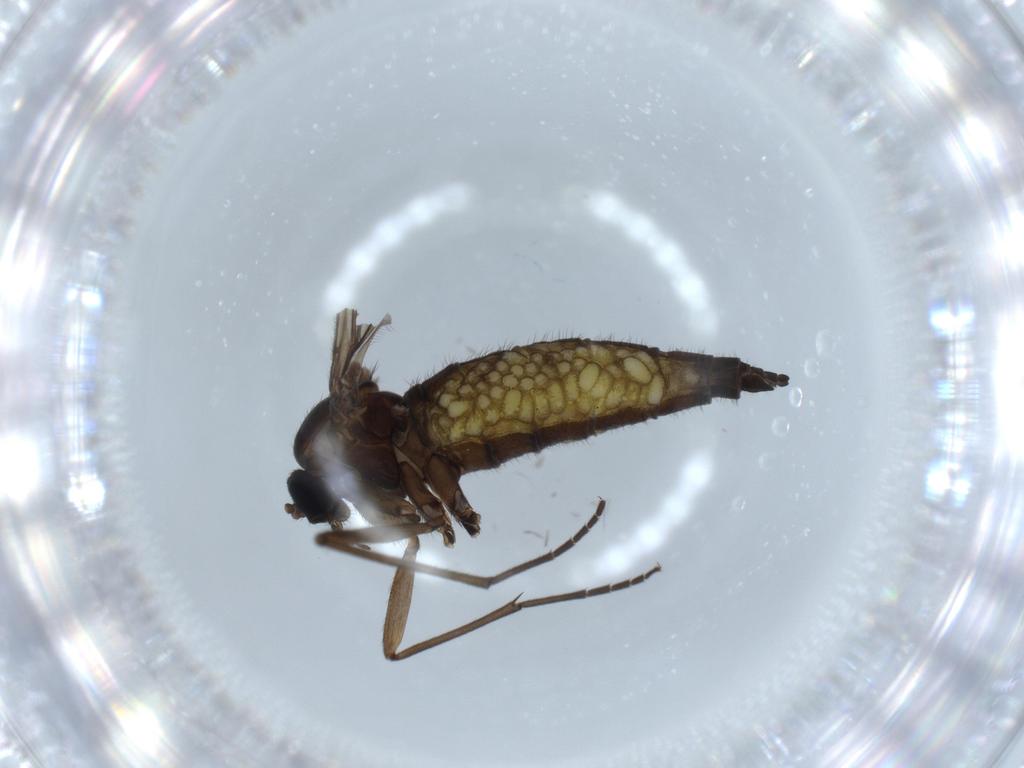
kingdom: Animalia
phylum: Arthropoda
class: Insecta
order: Diptera
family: Sciaridae
